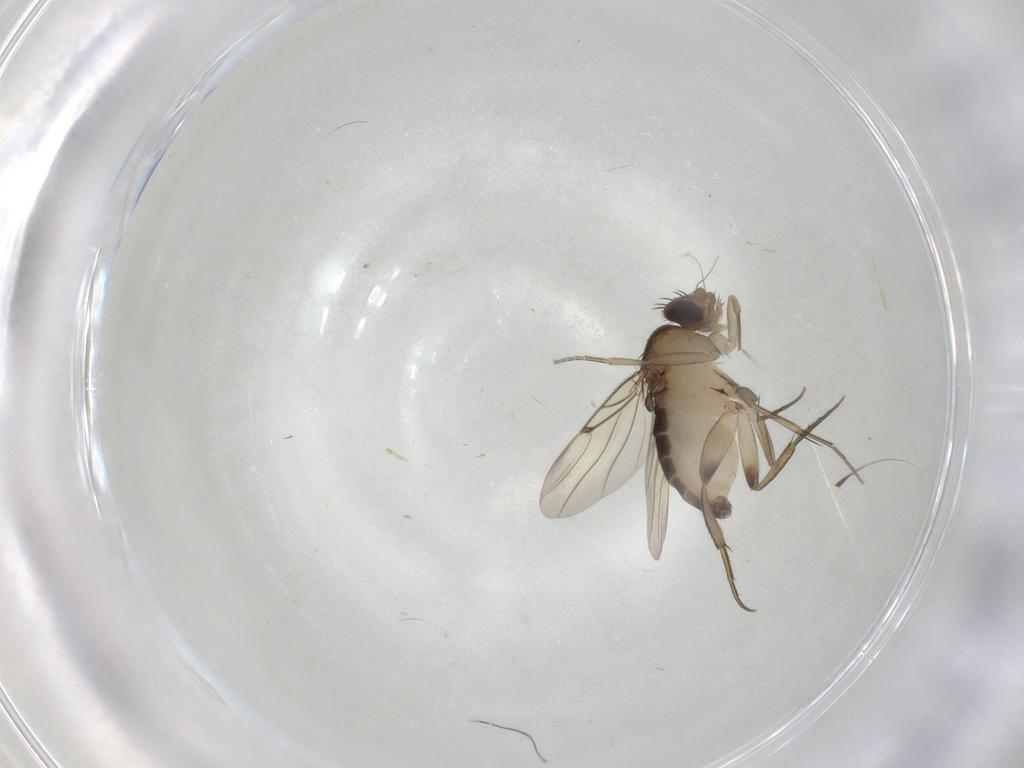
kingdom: Animalia
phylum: Arthropoda
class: Insecta
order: Diptera
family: Phoridae
